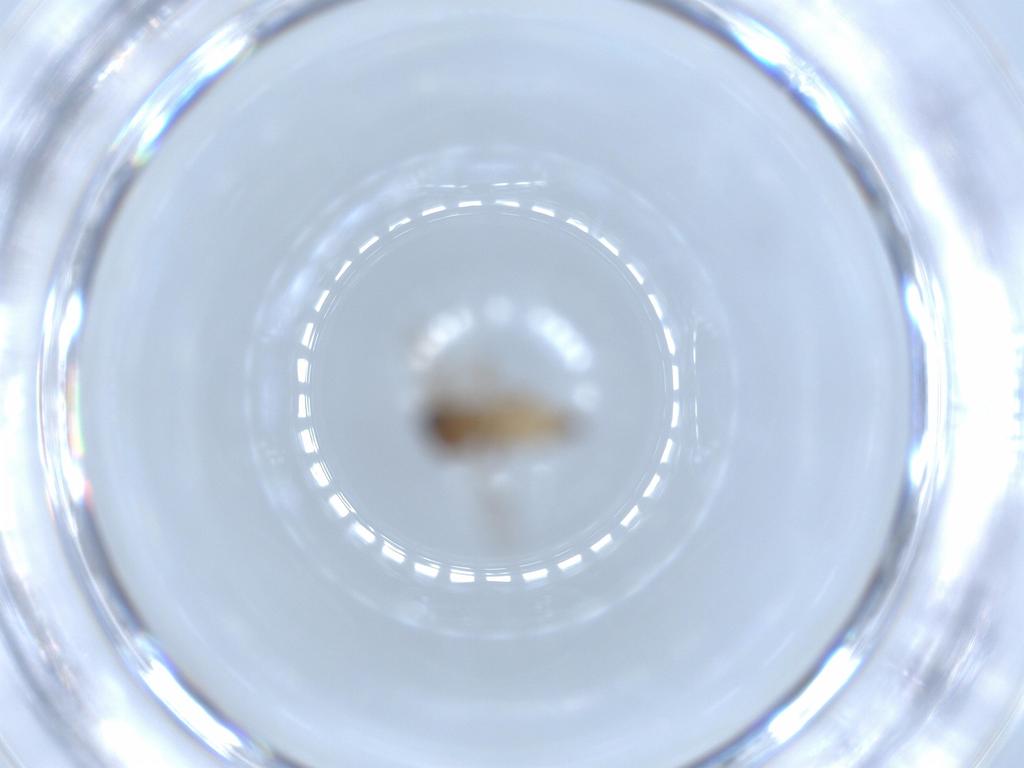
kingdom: Animalia
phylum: Arthropoda
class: Insecta
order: Diptera
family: Ceratopogonidae
